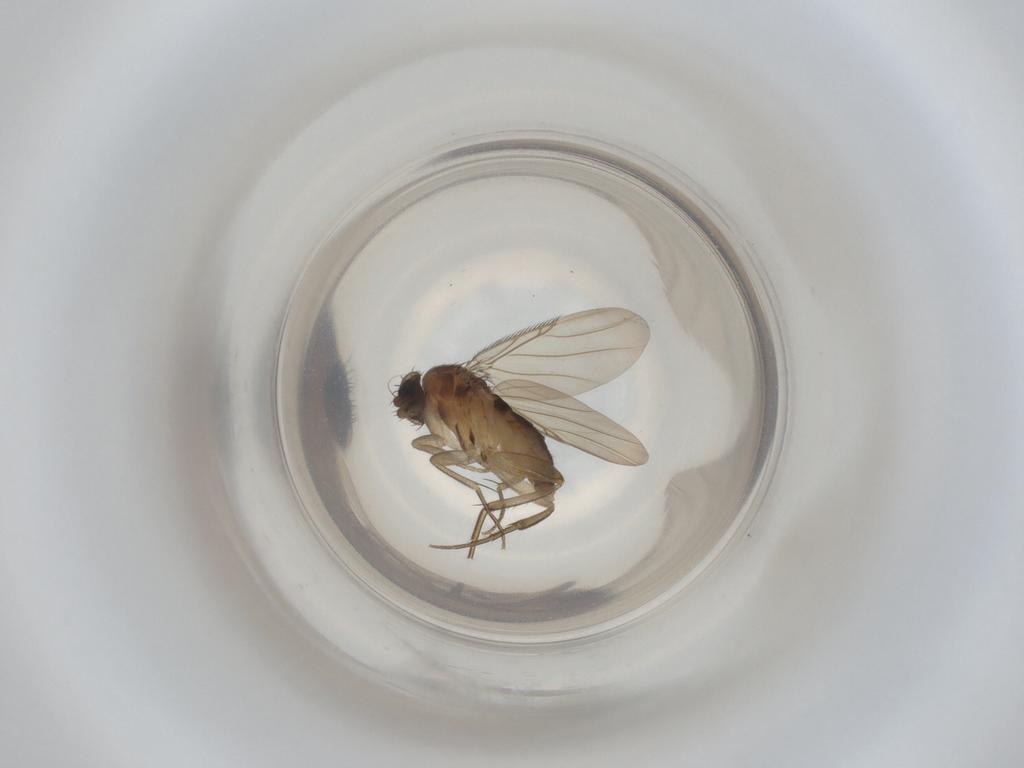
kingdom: Animalia
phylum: Arthropoda
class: Insecta
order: Diptera
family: Phoridae
